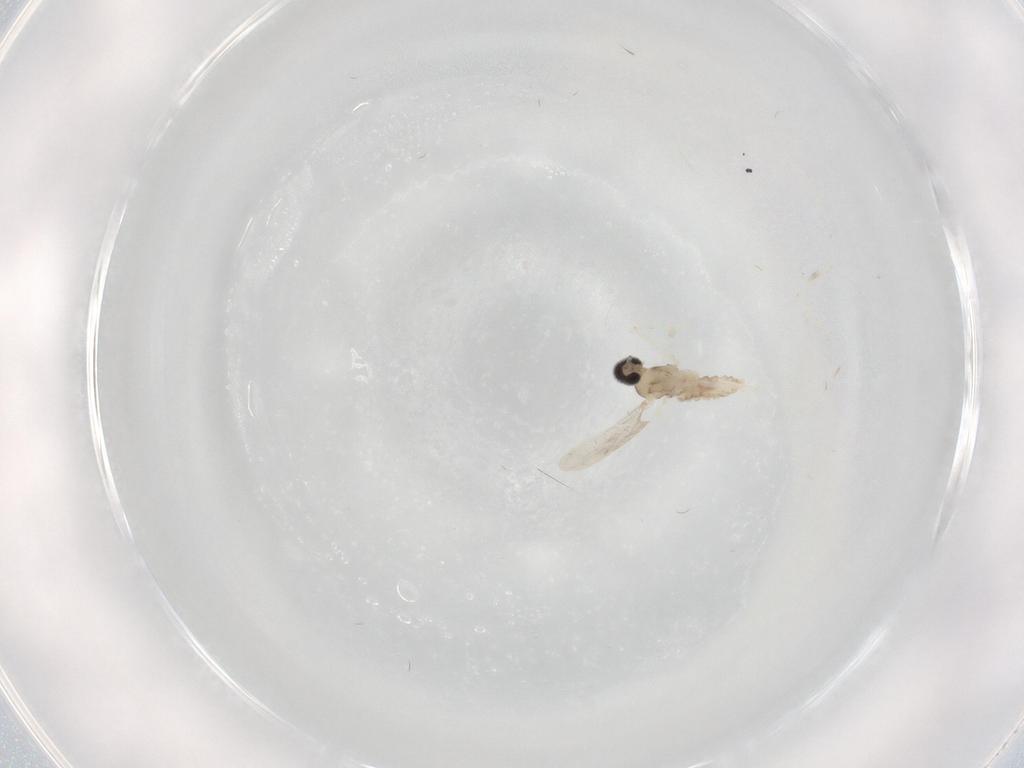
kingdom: Animalia
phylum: Arthropoda
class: Insecta
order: Diptera
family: Cecidomyiidae
